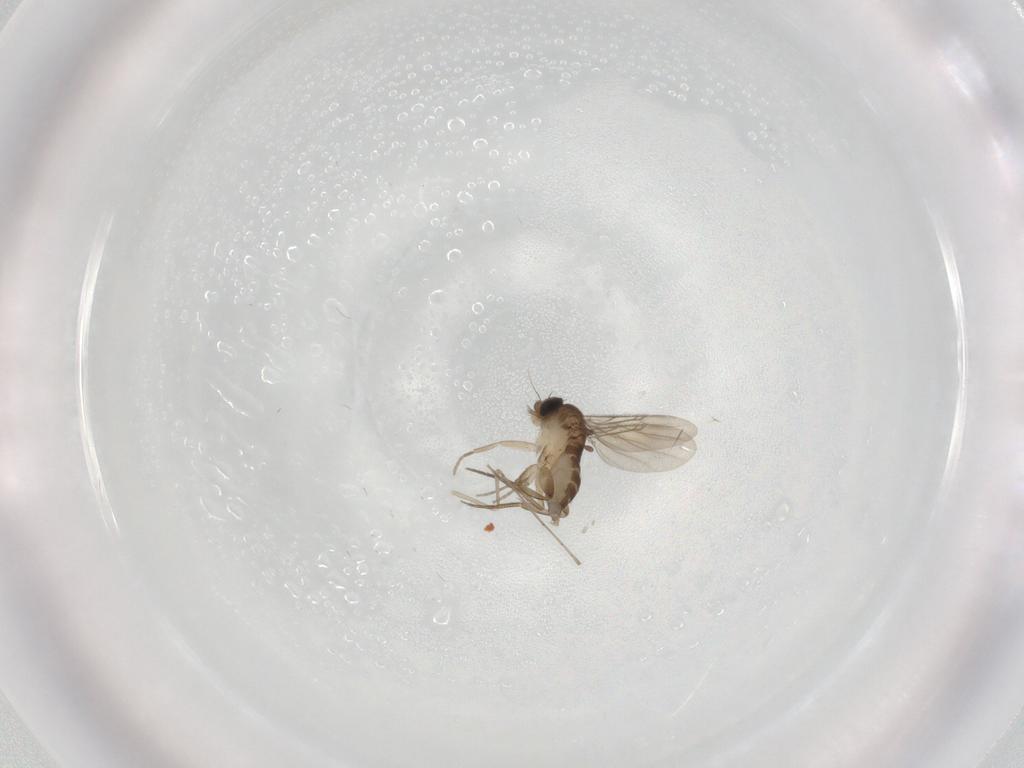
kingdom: Animalia
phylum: Arthropoda
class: Insecta
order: Diptera
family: Phoridae
